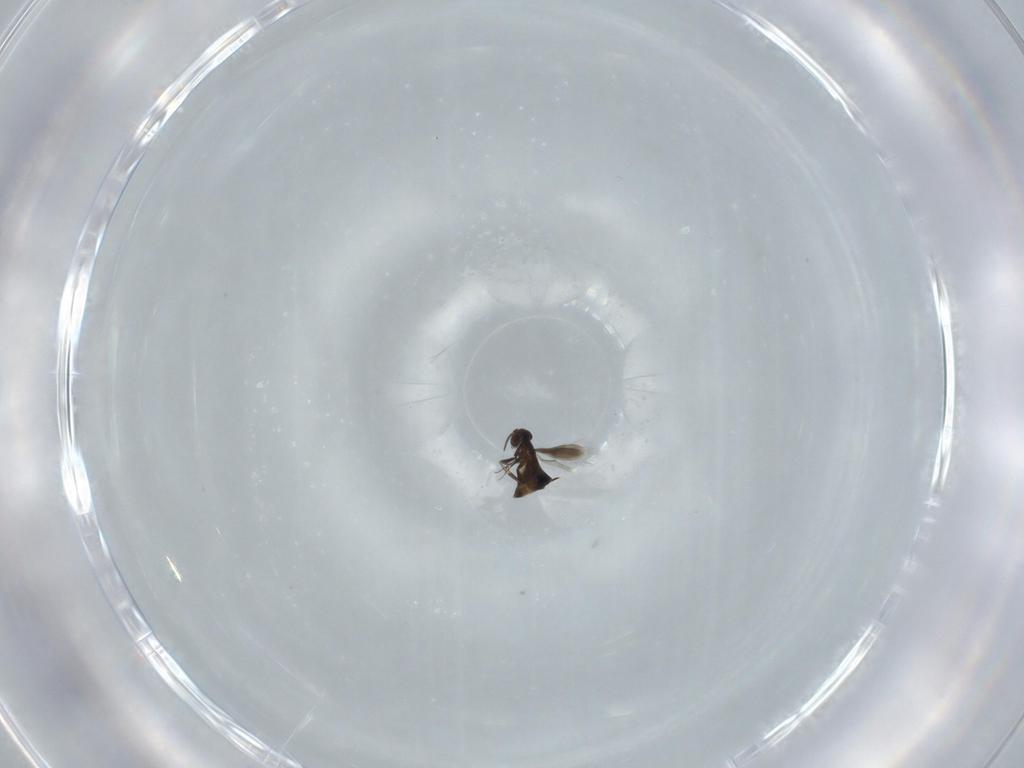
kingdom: Animalia
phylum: Arthropoda
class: Insecta
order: Hymenoptera
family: Signiphoridae
